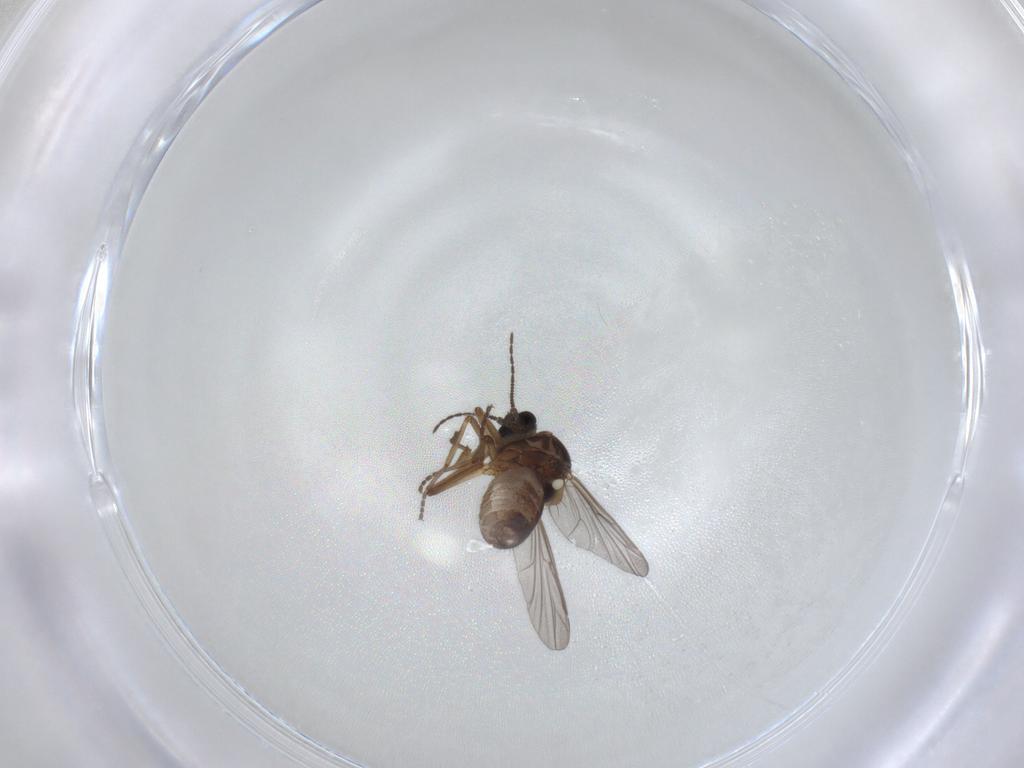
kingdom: Animalia
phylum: Arthropoda
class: Insecta
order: Diptera
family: Ceratopogonidae
